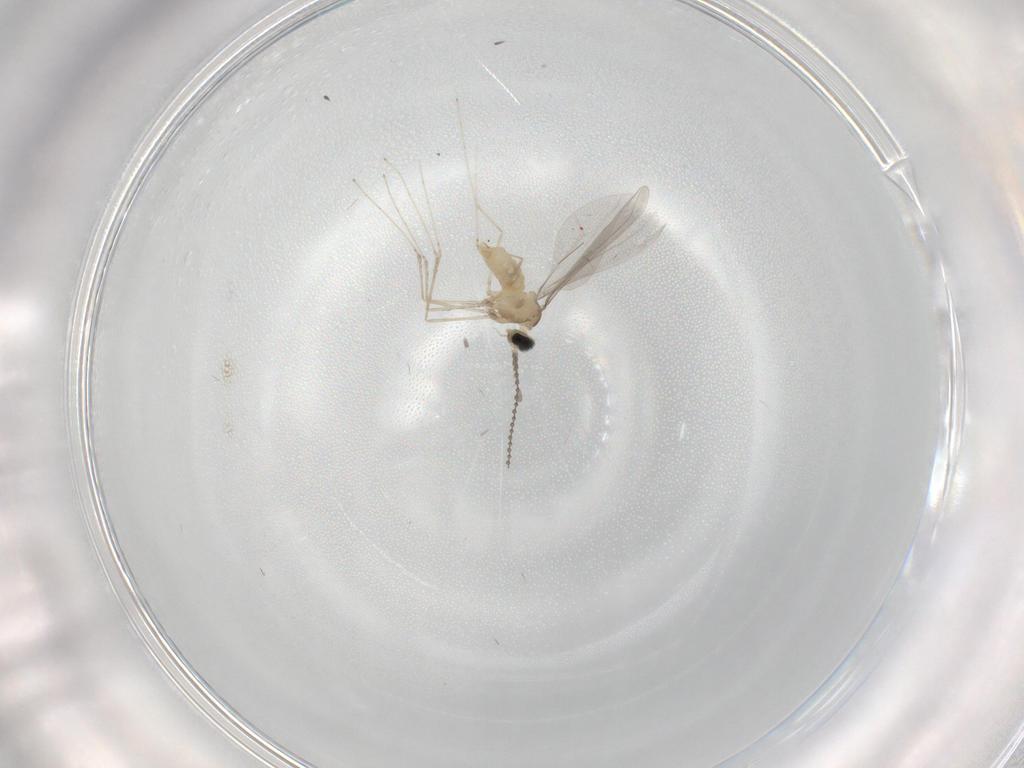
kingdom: Animalia
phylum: Arthropoda
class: Insecta
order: Diptera
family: Cecidomyiidae
